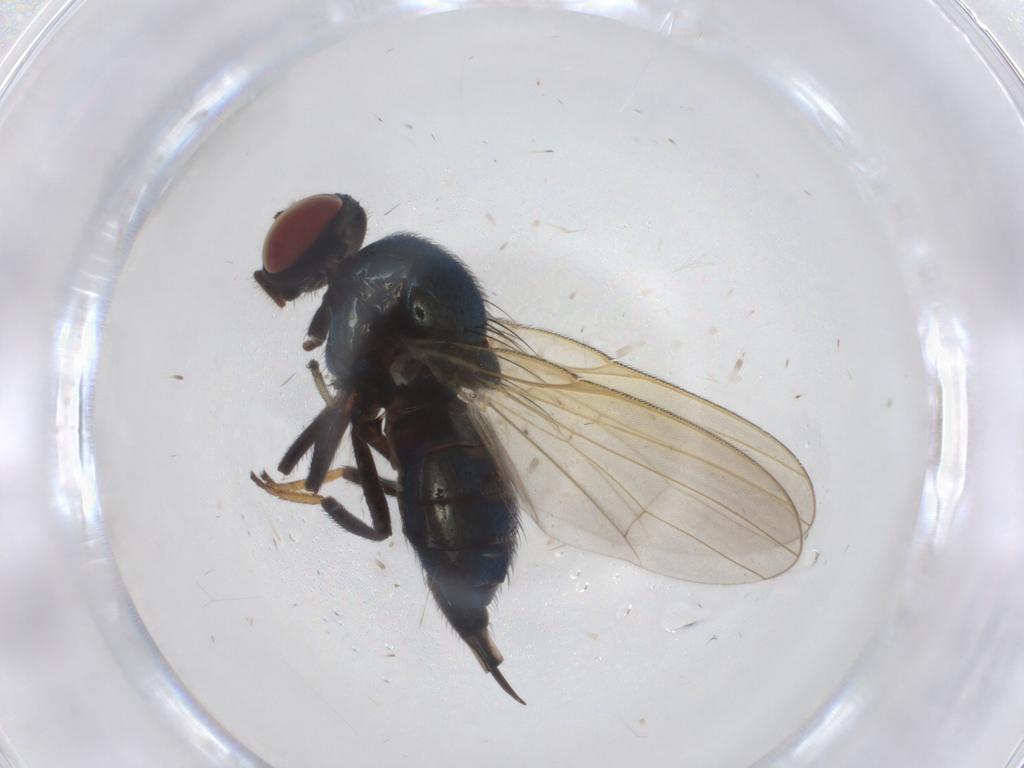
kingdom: Animalia
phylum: Arthropoda
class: Insecta
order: Diptera
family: Lonchaeidae
